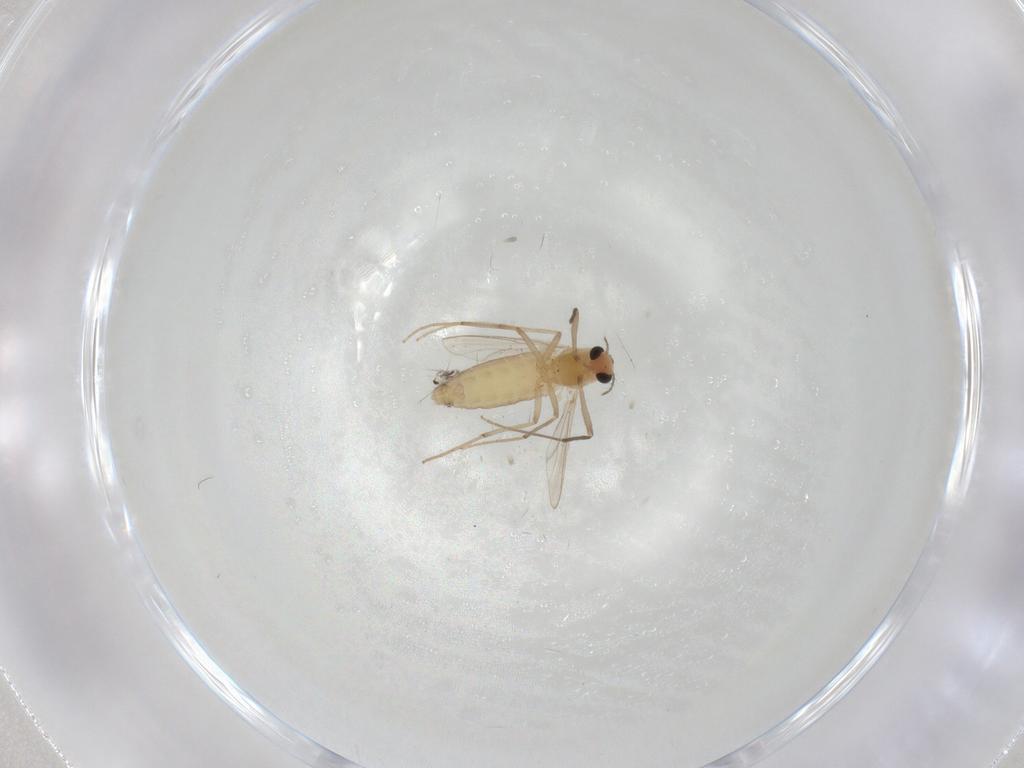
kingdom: Animalia
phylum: Arthropoda
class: Insecta
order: Diptera
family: Chironomidae
